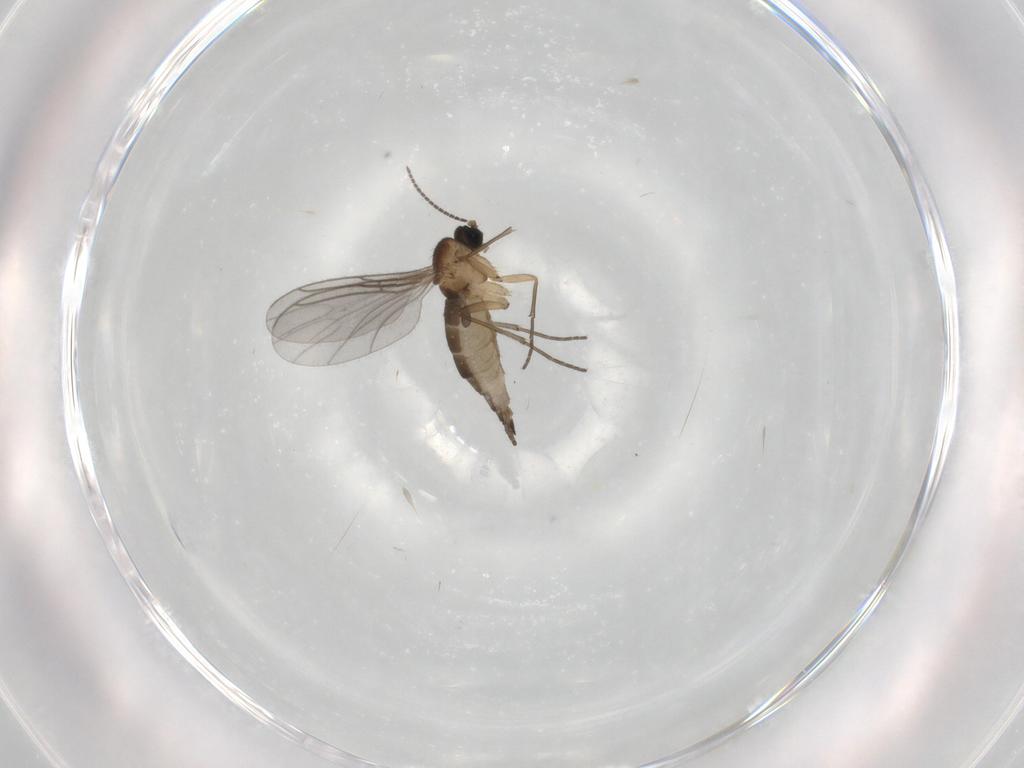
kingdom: Animalia
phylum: Arthropoda
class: Insecta
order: Diptera
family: Sciaridae
